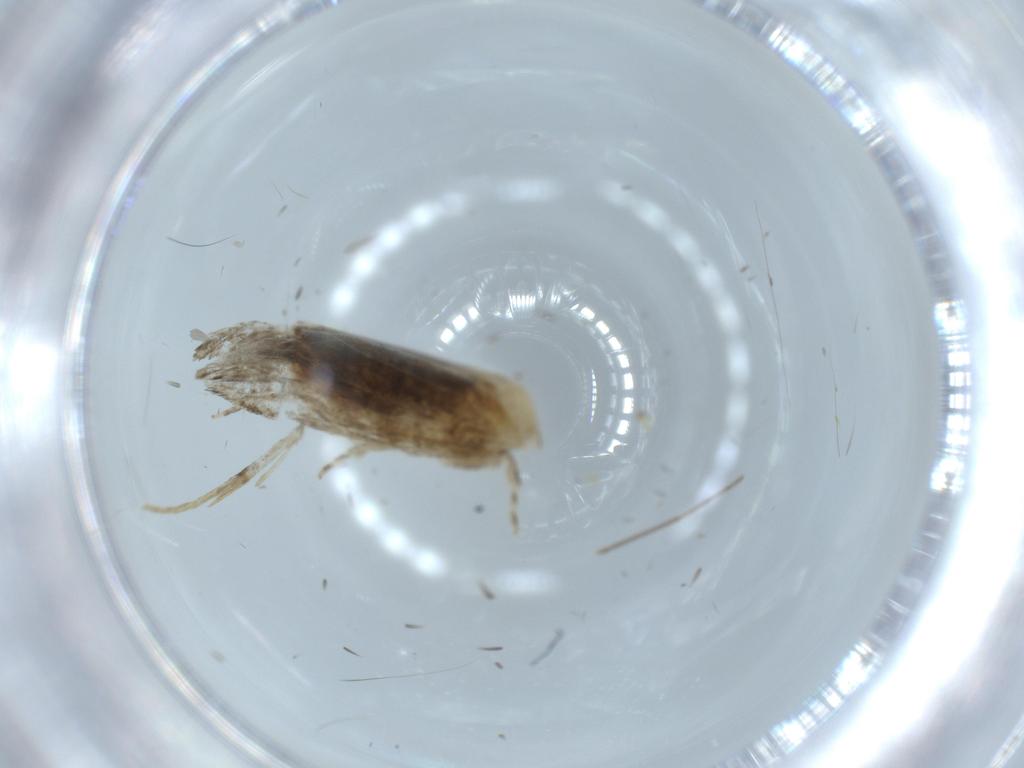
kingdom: Animalia
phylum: Arthropoda
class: Insecta
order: Lepidoptera
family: Tineidae
